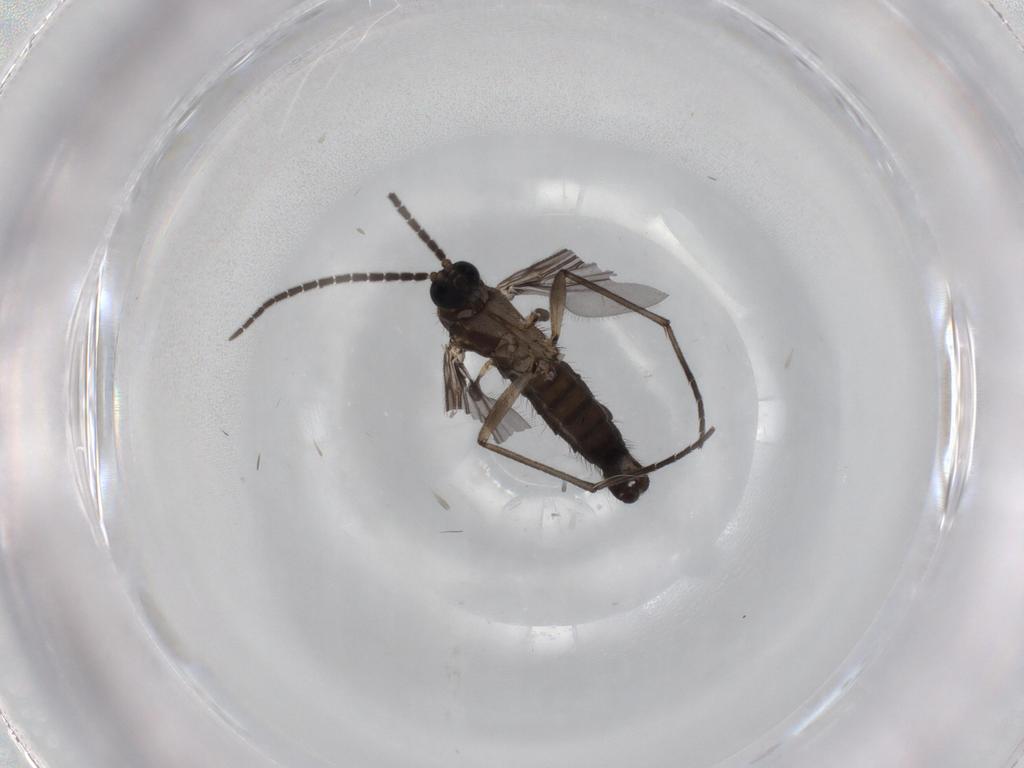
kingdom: Animalia
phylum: Arthropoda
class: Insecta
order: Diptera
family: Sciaridae
